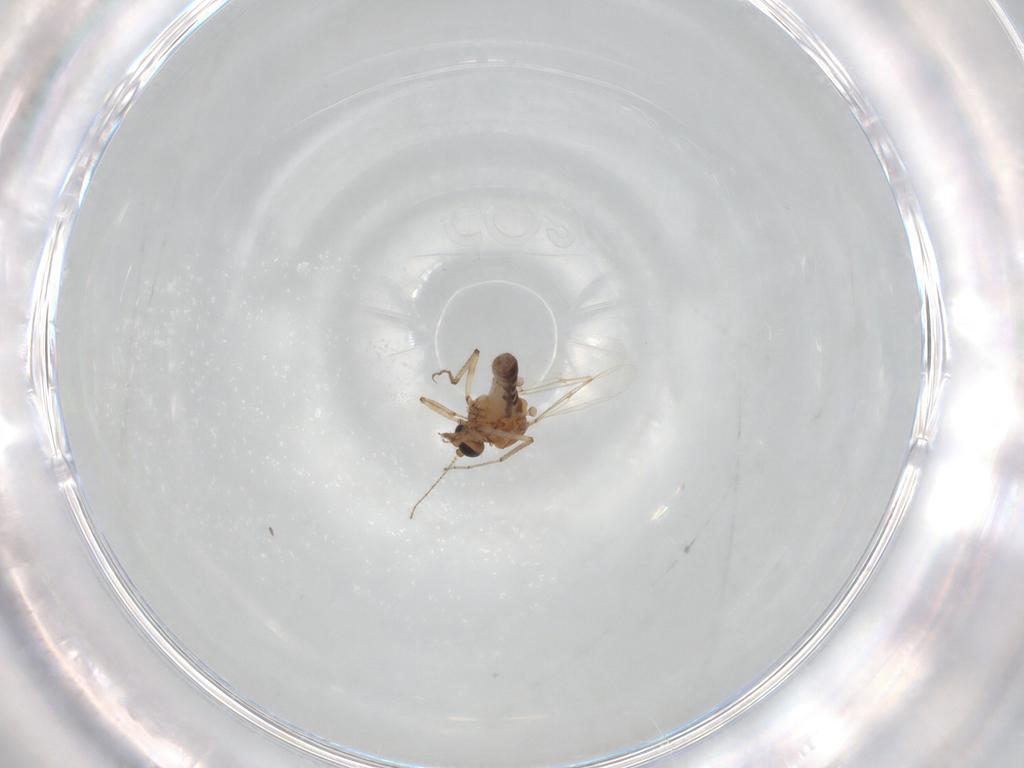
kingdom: Animalia
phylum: Arthropoda
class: Insecta
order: Diptera
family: Ceratopogonidae
